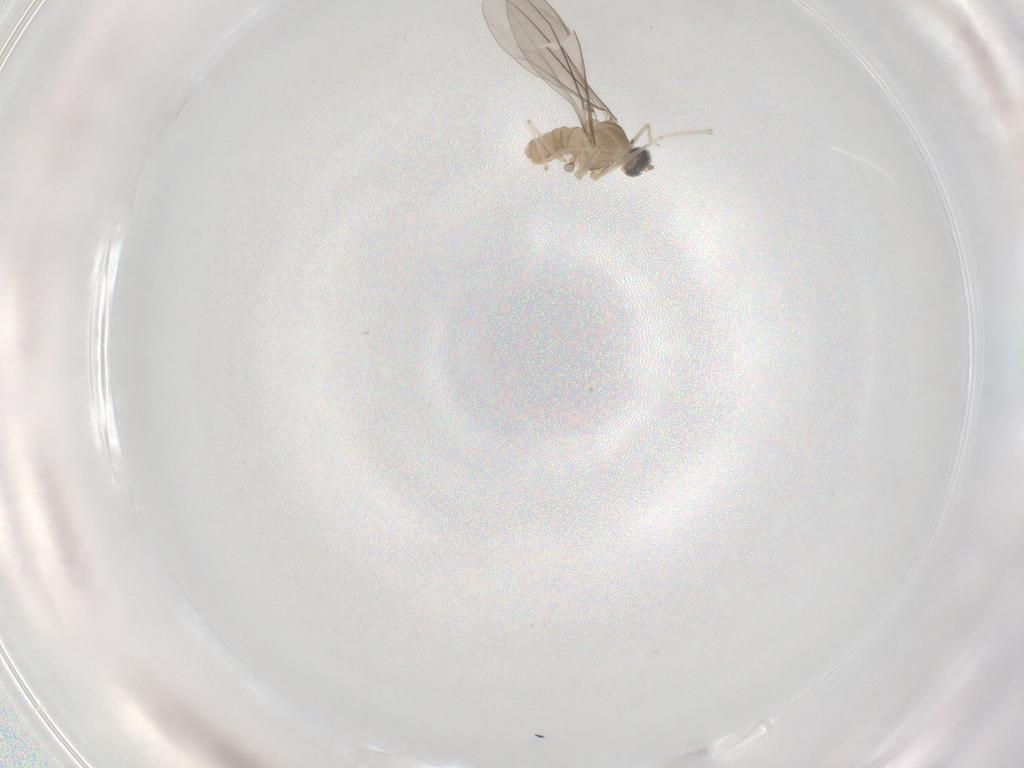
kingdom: Animalia
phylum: Arthropoda
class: Insecta
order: Diptera
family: Cecidomyiidae
